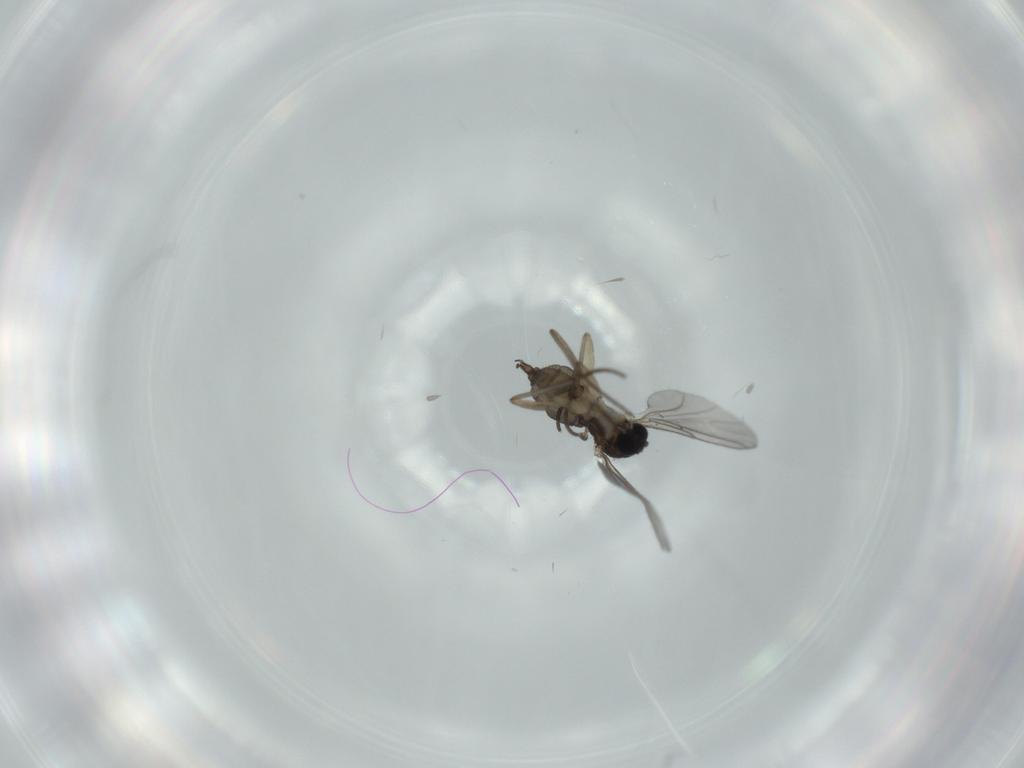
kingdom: Animalia
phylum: Arthropoda
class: Insecta
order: Diptera
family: Sciaridae
